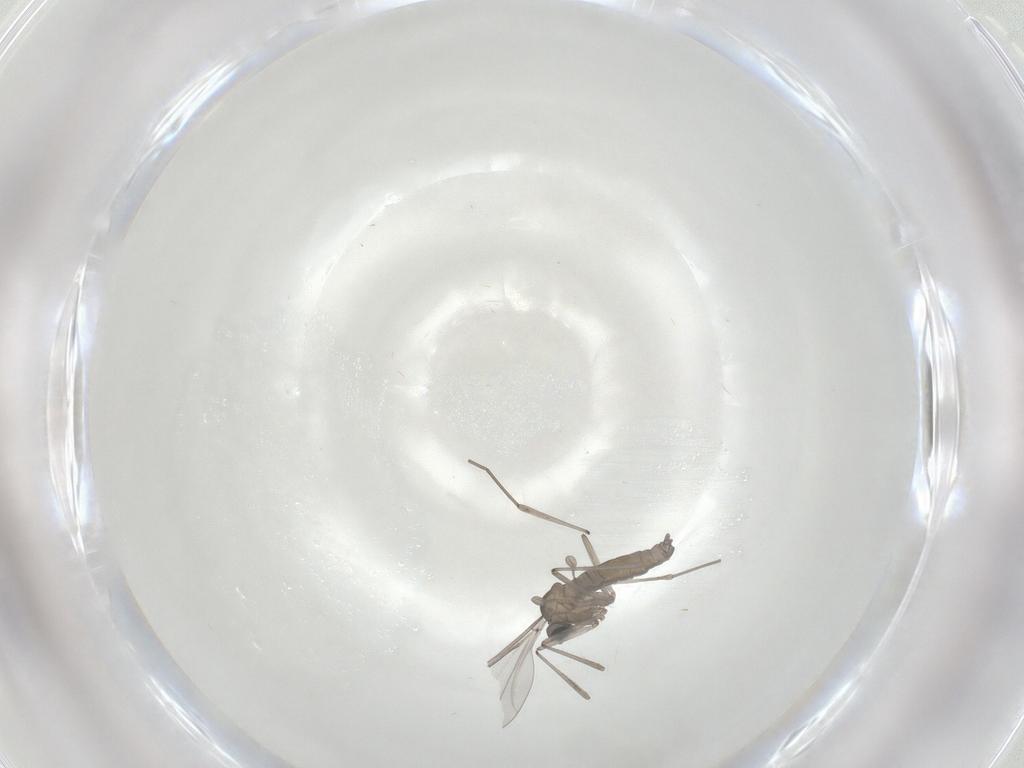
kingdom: Animalia
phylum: Arthropoda
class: Insecta
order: Diptera
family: Cecidomyiidae
